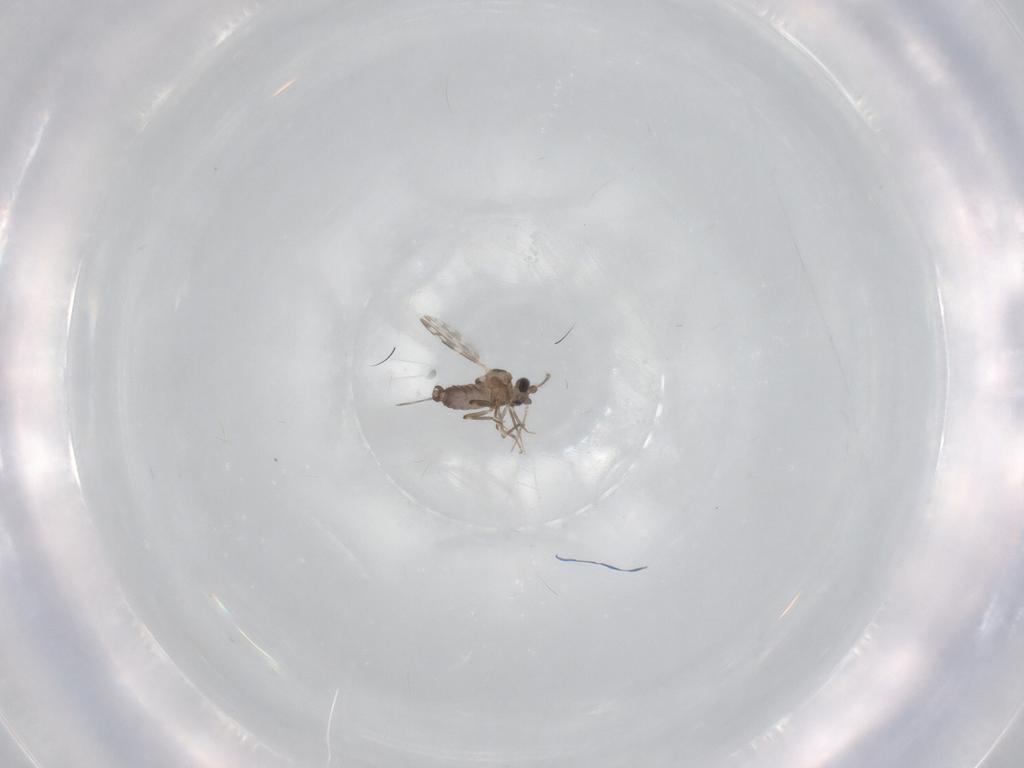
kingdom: Animalia
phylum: Arthropoda
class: Insecta
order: Diptera
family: Ceratopogonidae
